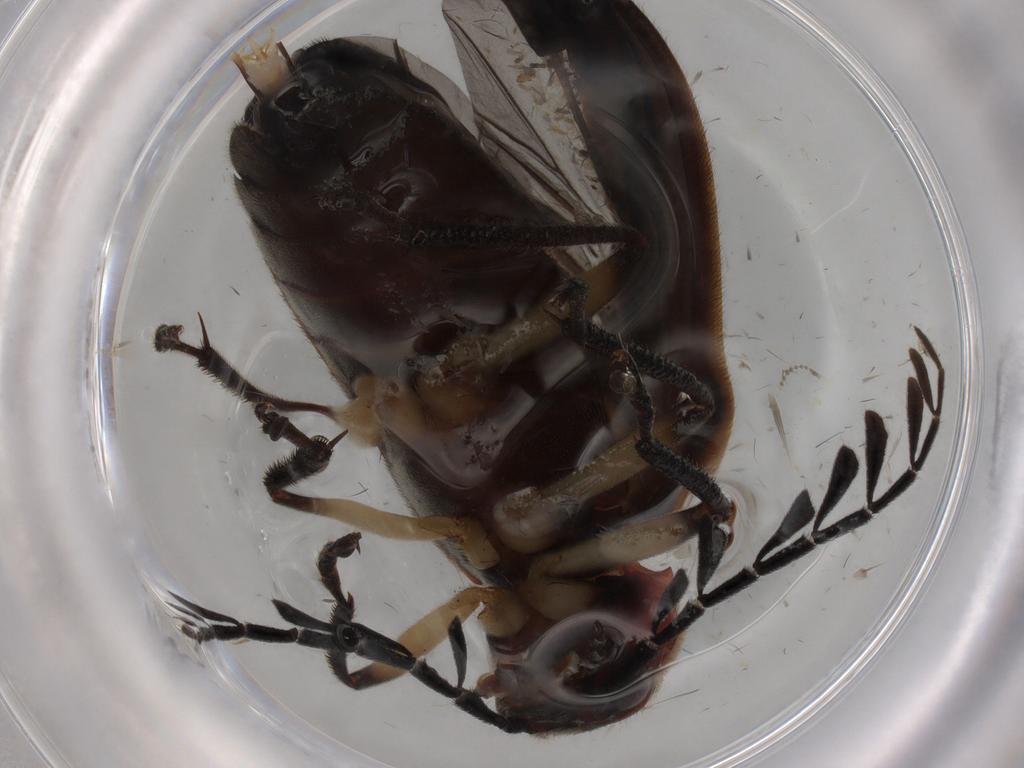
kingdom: Animalia
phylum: Arthropoda
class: Insecta
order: Coleoptera
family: Ptilodactylidae
